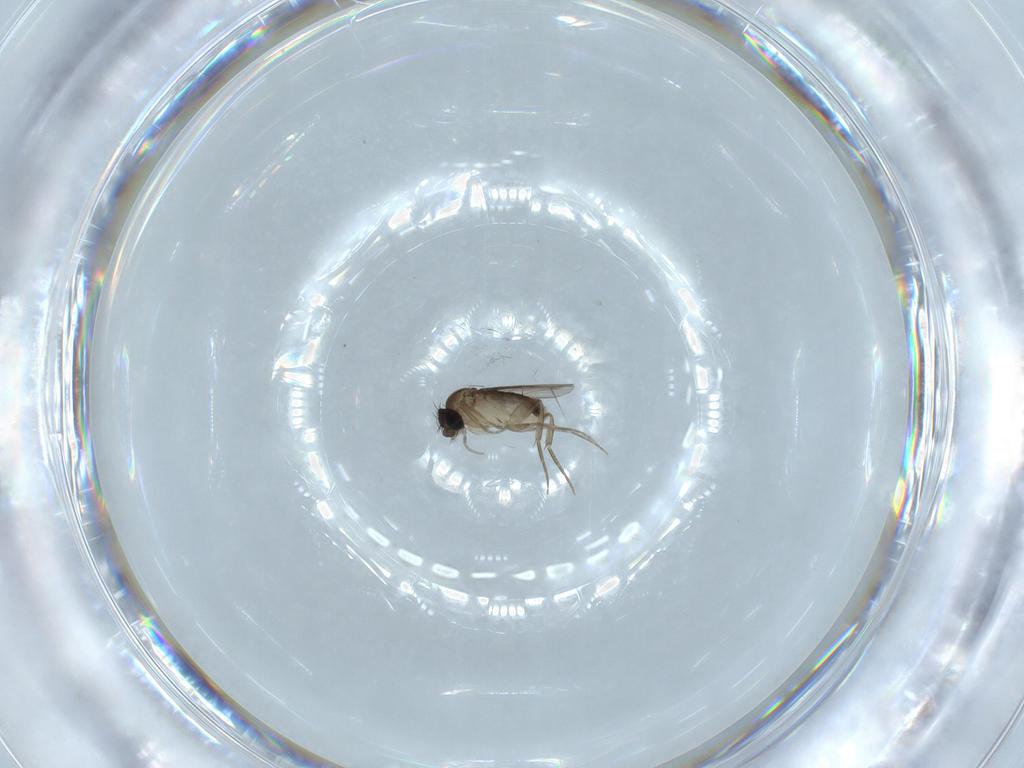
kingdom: Animalia
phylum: Arthropoda
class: Insecta
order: Diptera
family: Phoridae
